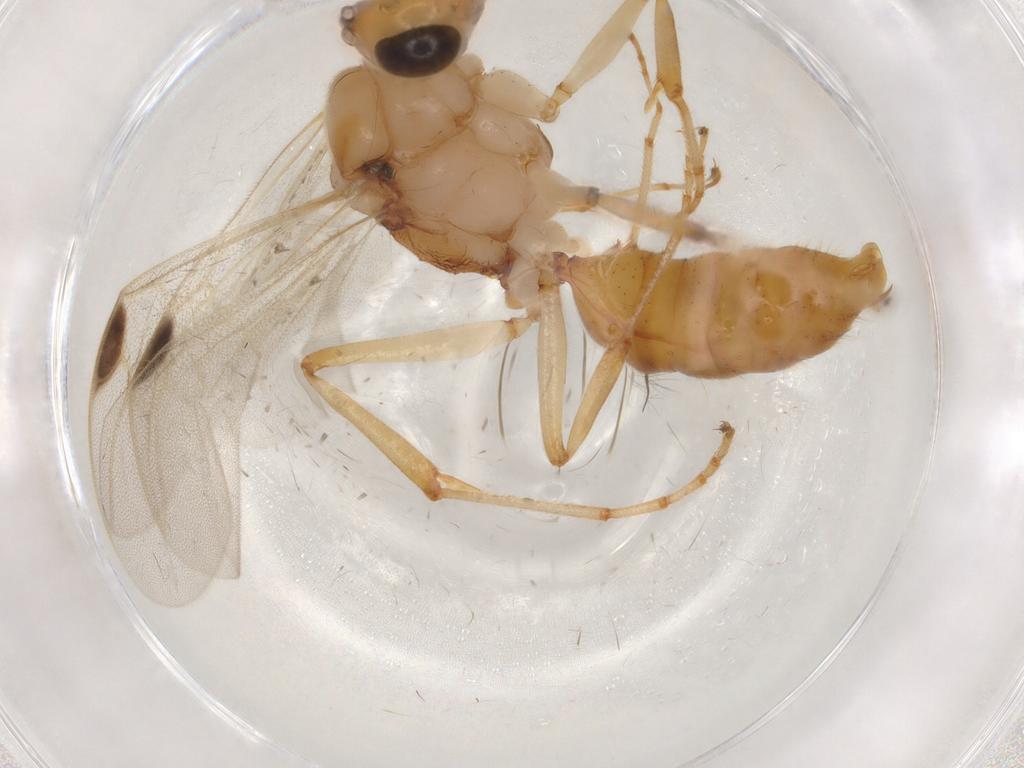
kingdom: Animalia
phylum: Arthropoda
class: Insecta
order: Hymenoptera
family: Formicidae
